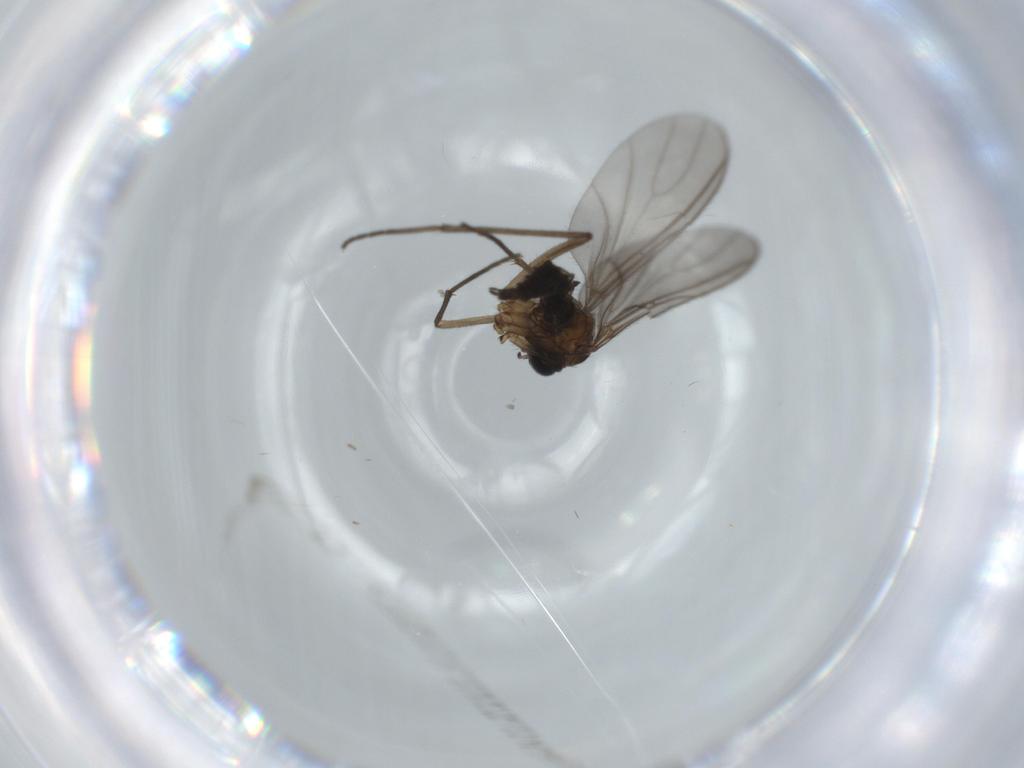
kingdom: Animalia
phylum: Arthropoda
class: Insecta
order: Diptera
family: Sciaridae
